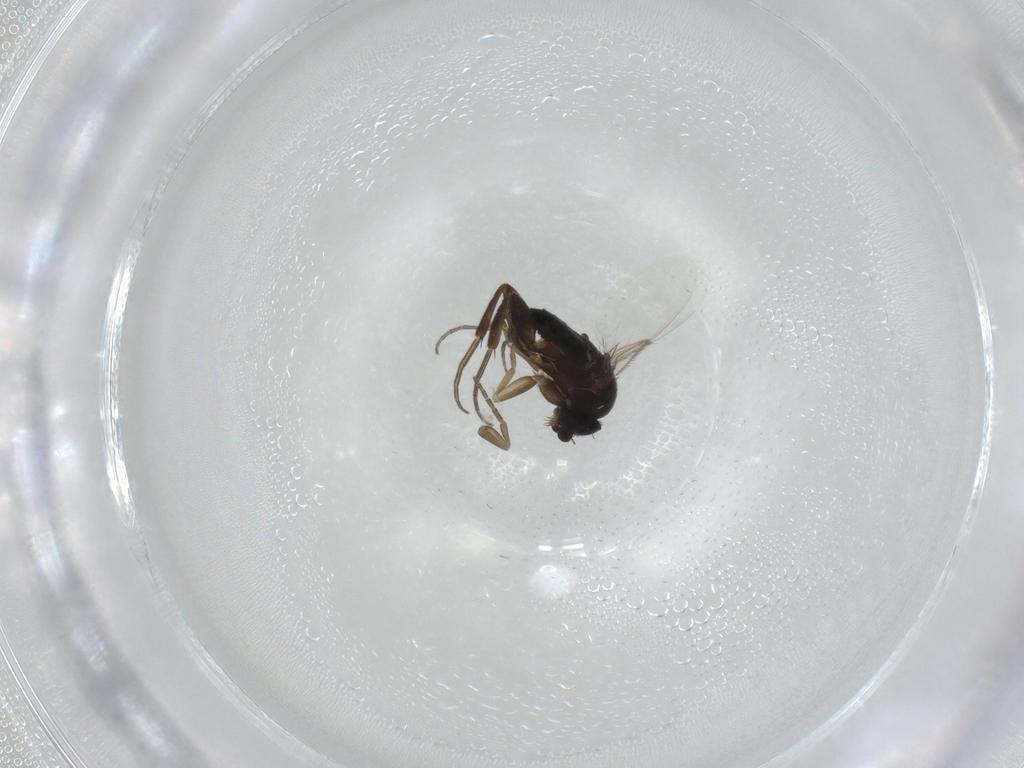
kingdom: Animalia
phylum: Arthropoda
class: Insecta
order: Diptera
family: Phoridae
